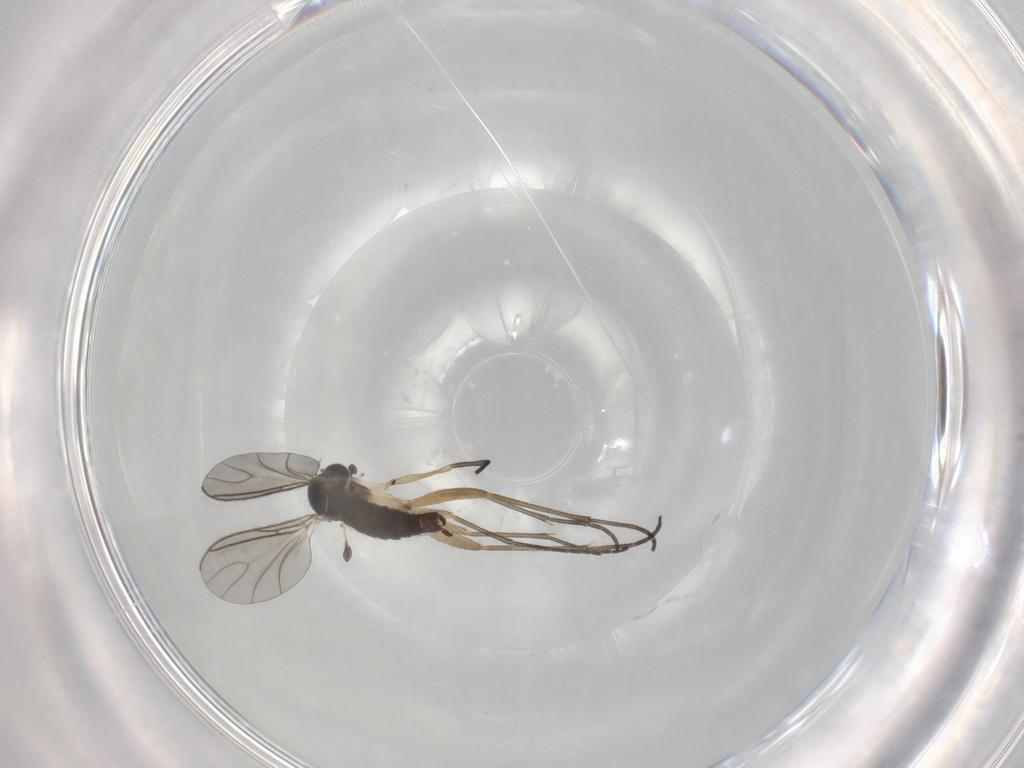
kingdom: Animalia
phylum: Arthropoda
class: Insecta
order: Diptera
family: Sciaridae
